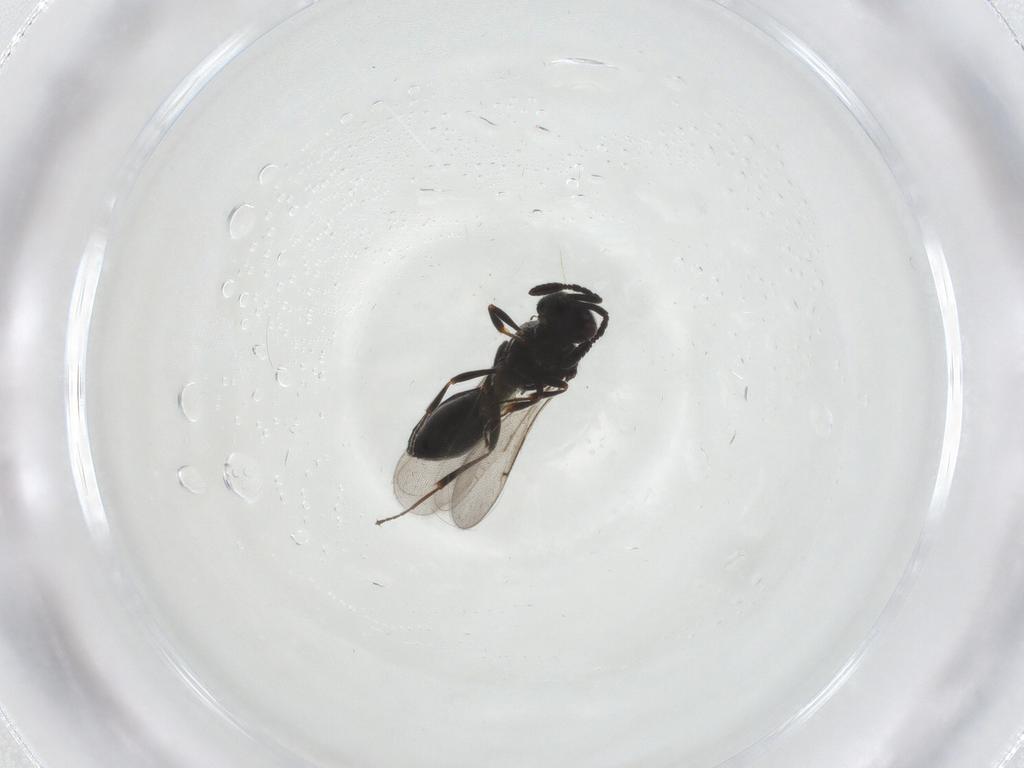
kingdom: Animalia
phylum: Arthropoda
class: Insecta
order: Hymenoptera
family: Scelionidae
